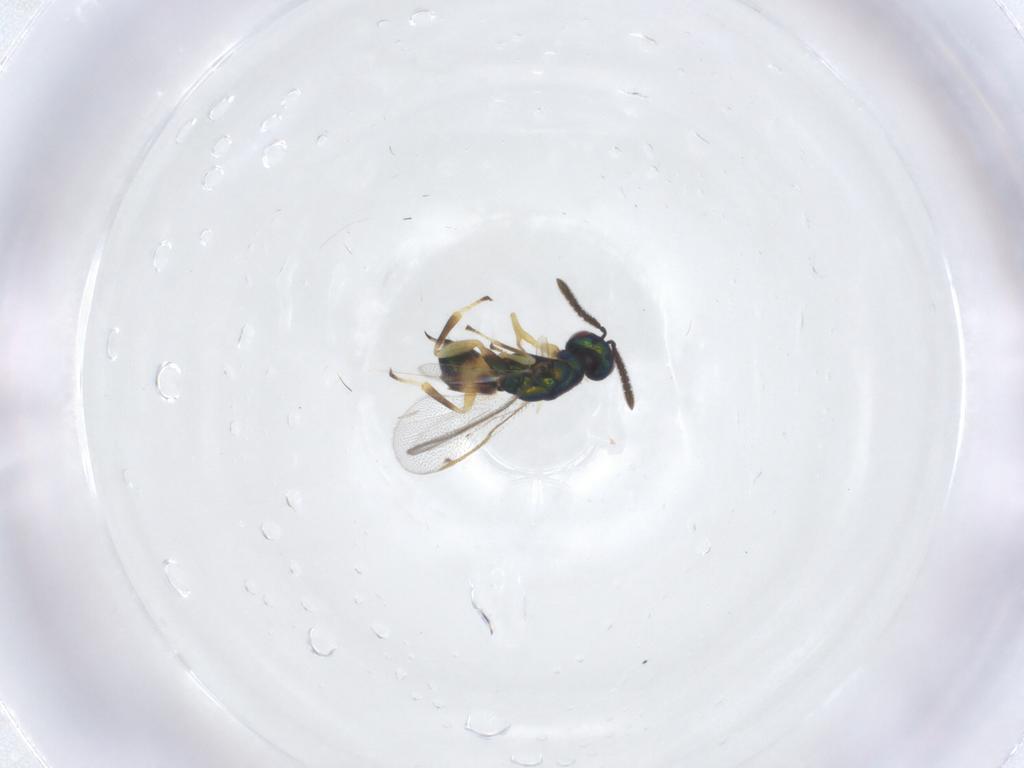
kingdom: Animalia
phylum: Arthropoda
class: Insecta
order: Hymenoptera
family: Torymidae
